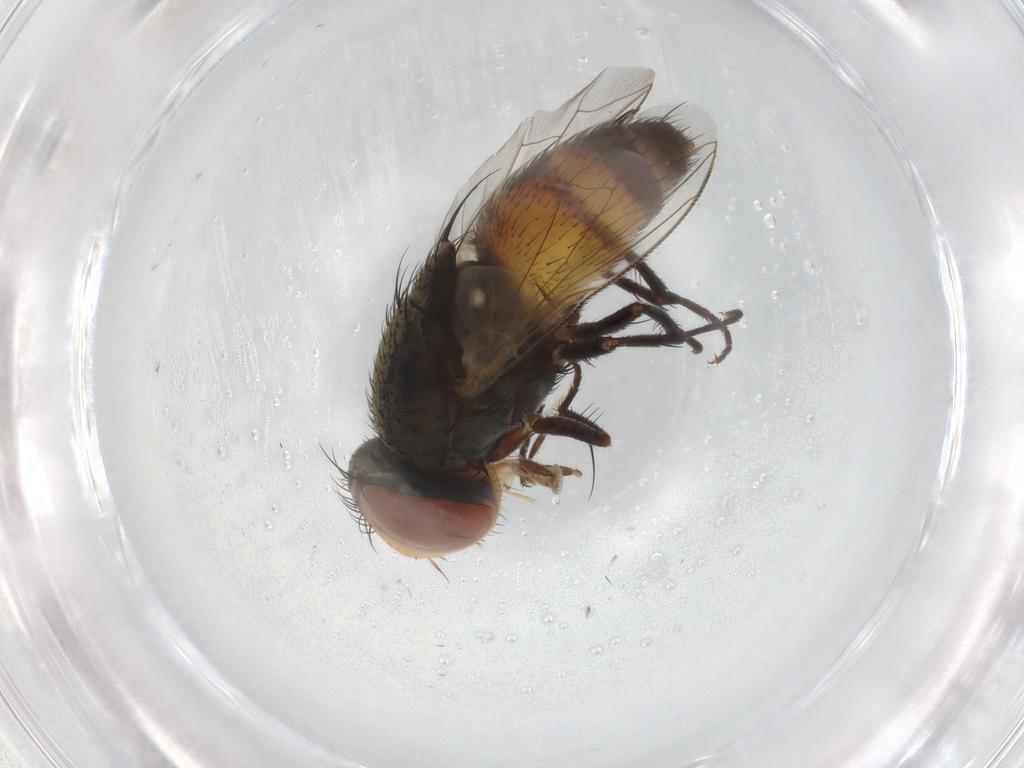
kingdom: Animalia
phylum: Arthropoda
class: Insecta
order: Diptera
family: Sarcophagidae
